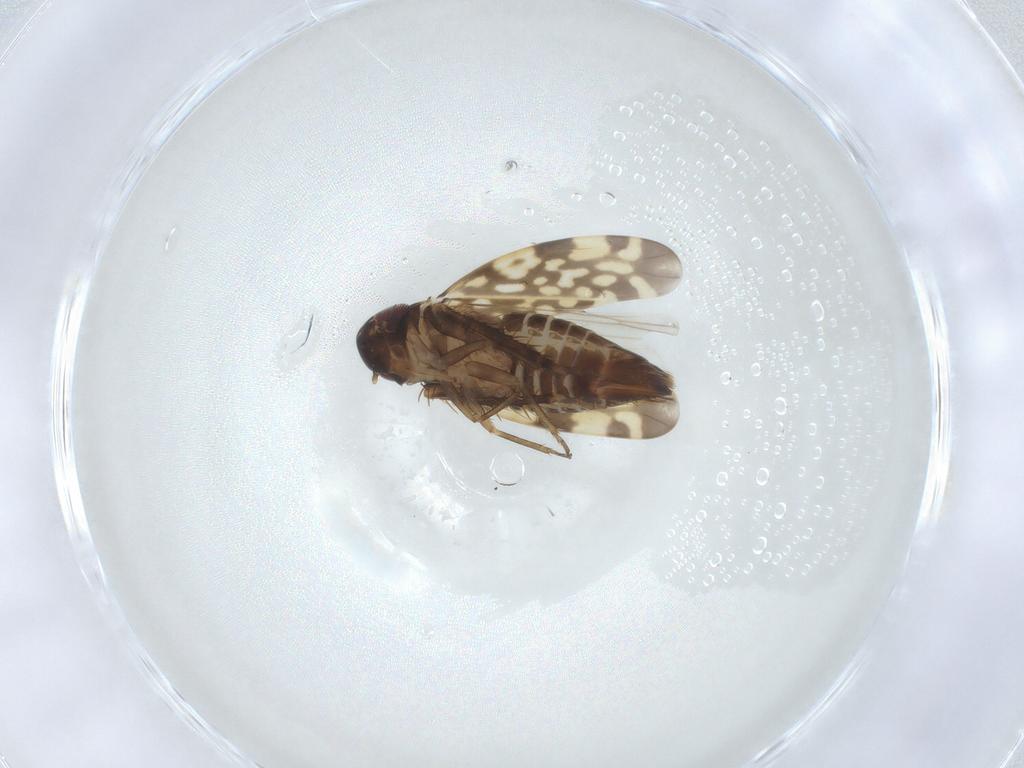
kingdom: Animalia
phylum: Arthropoda
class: Insecta
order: Hemiptera
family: Cicadellidae
